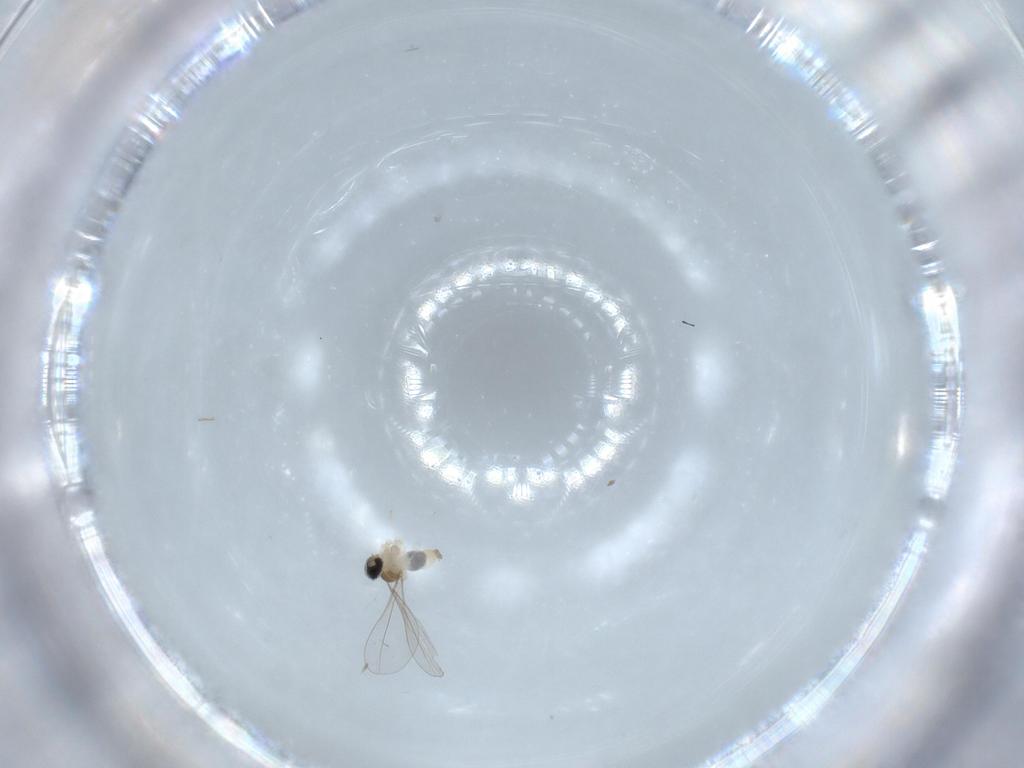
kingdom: Animalia
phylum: Arthropoda
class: Insecta
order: Diptera
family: Cecidomyiidae
